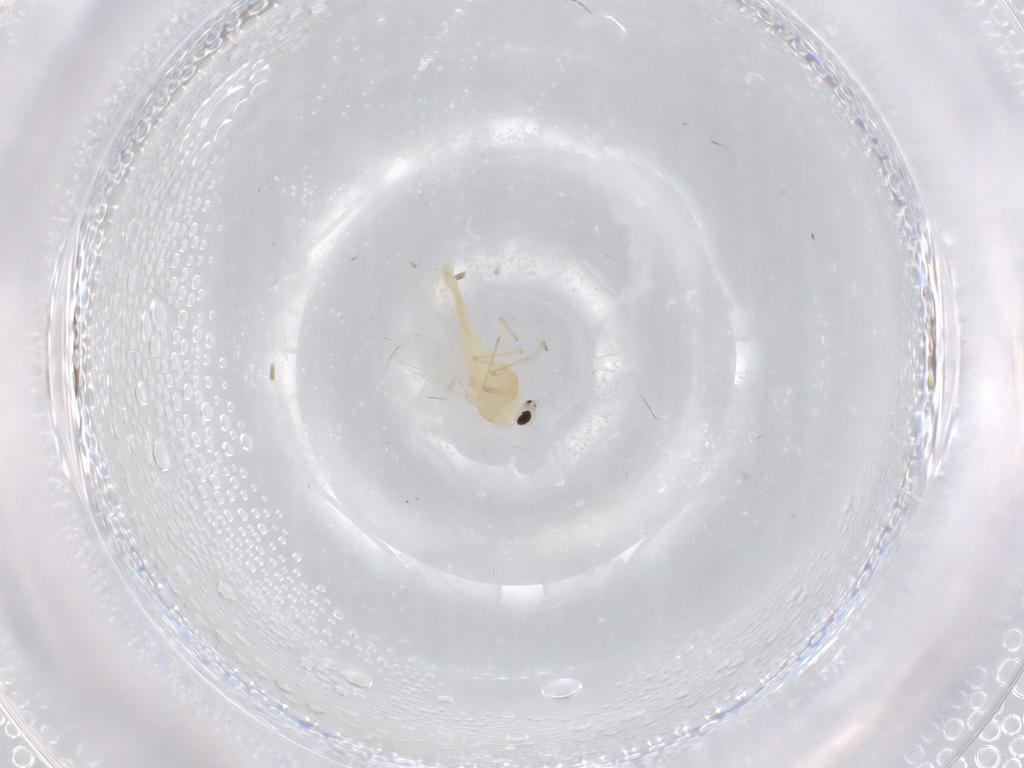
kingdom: Animalia
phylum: Arthropoda
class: Insecta
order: Diptera
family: Chironomidae
